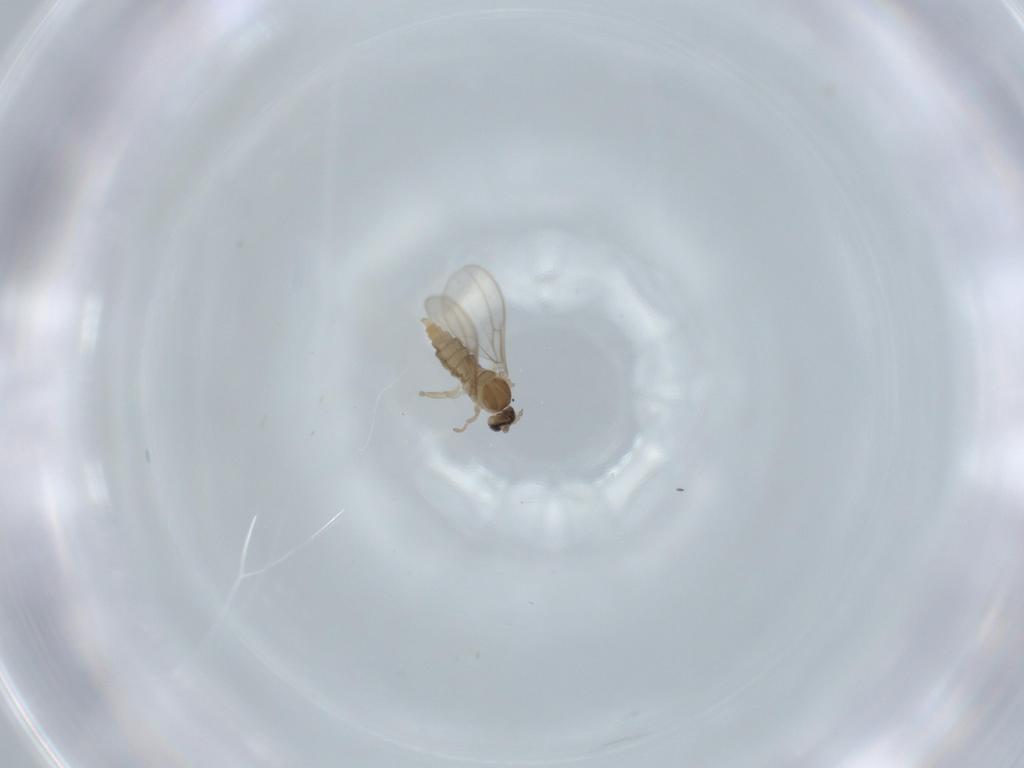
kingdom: Animalia
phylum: Arthropoda
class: Insecta
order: Diptera
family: Cecidomyiidae
